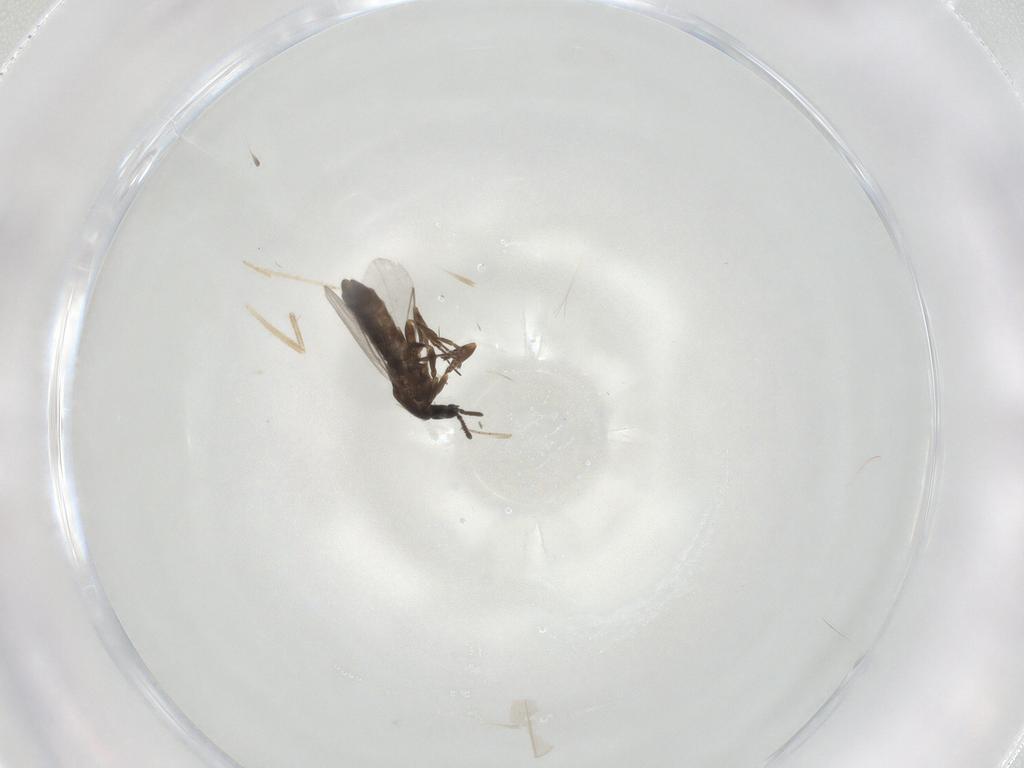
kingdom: Animalia
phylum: Arthropoda
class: Insecta
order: Diptera
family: Scatopsidae
